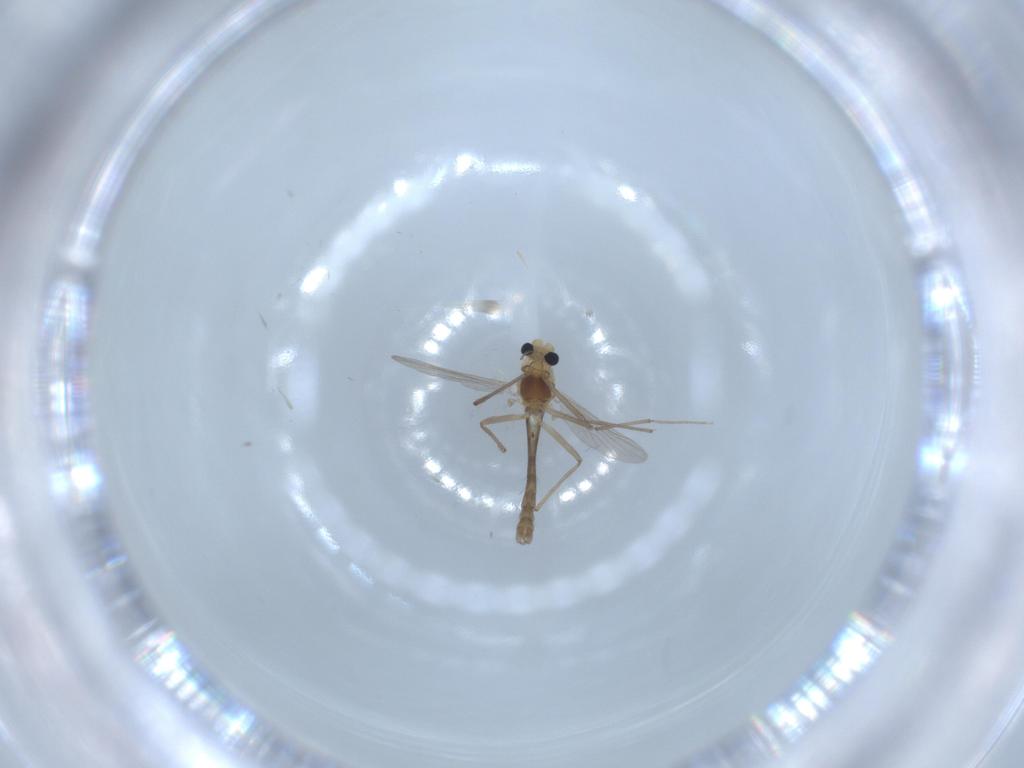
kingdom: Animalia
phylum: Arthropoda
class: Insecta
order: Diptera
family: Chironomidae
